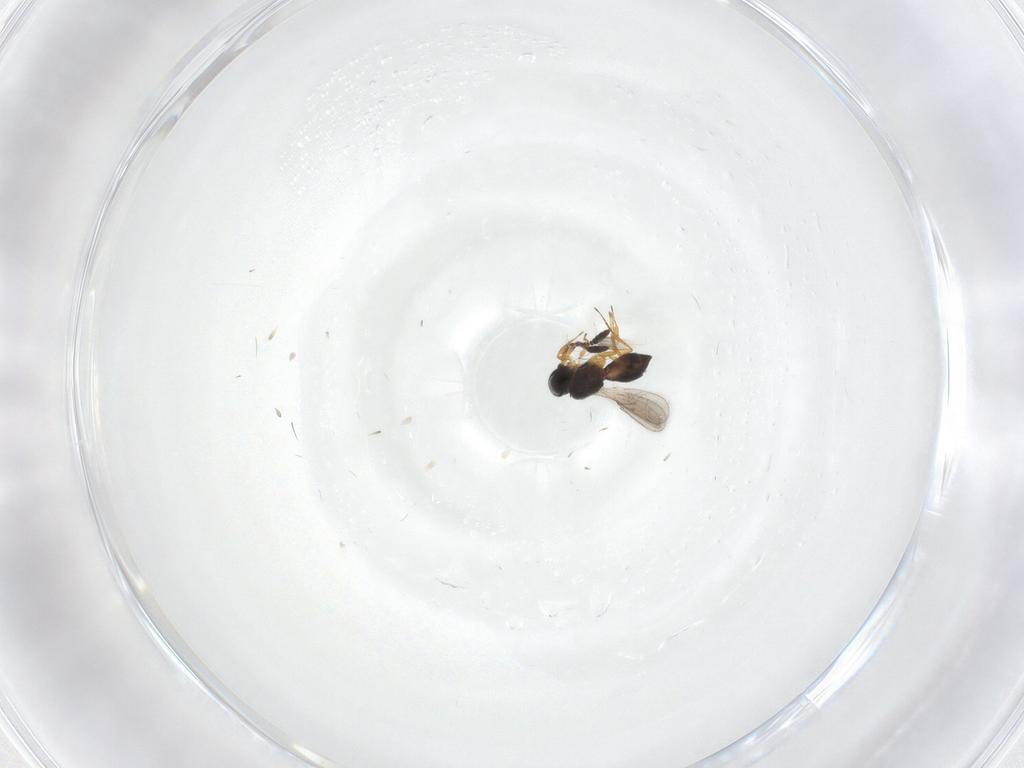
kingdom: Animalia
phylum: Arthropoda
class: Insecta
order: Hymenoptera
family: Scelionidae
